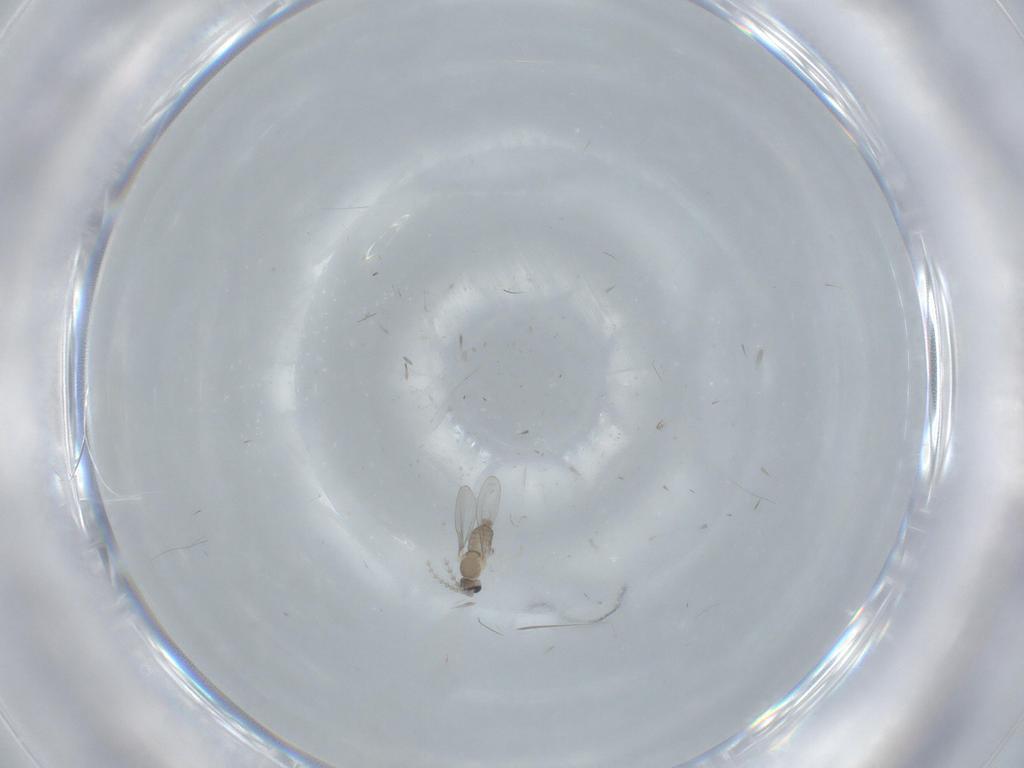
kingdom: Animalia
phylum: Arthropoda
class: Insecta
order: Diptera
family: Cecidomyiidae
